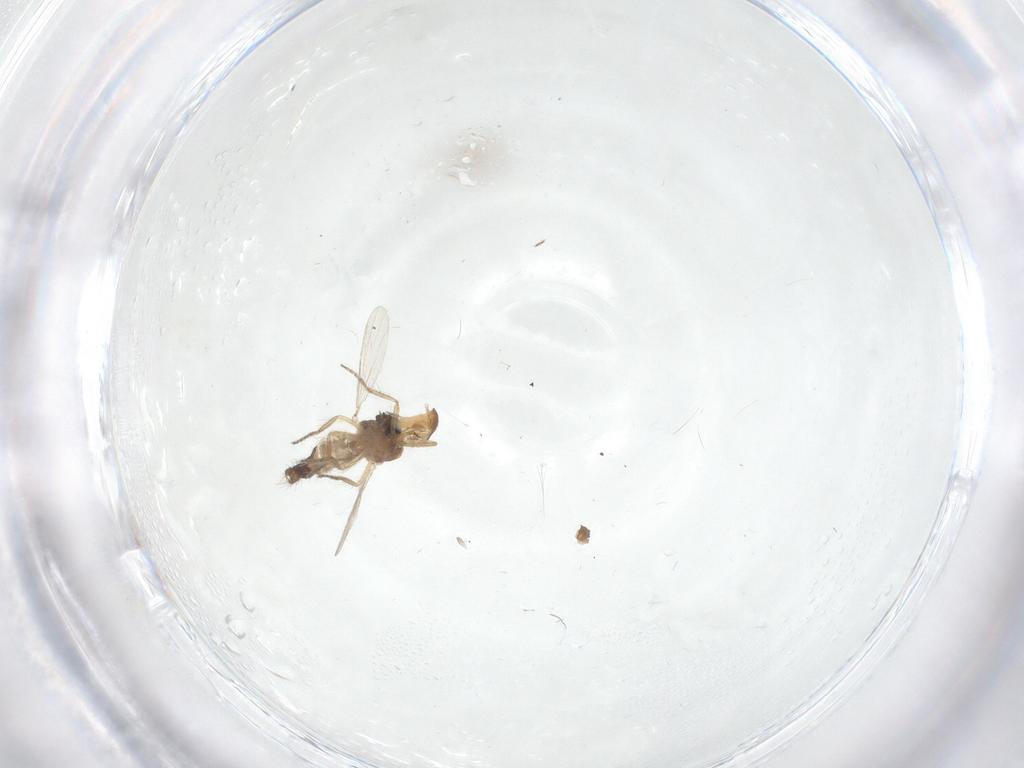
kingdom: Animalia
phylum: Arthropoda
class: Insecta
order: Diptera
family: Ceratopogonidae
